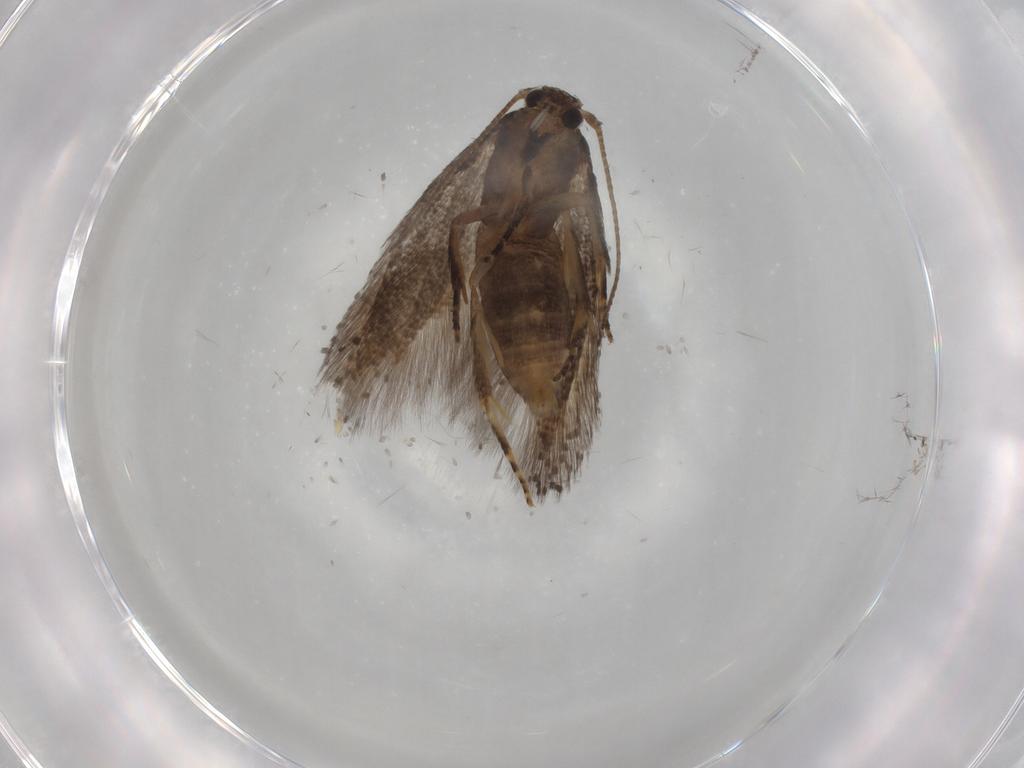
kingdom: Animalia
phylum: Arthropoda
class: Insecta
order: Lepidoptera
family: Elachistidae
